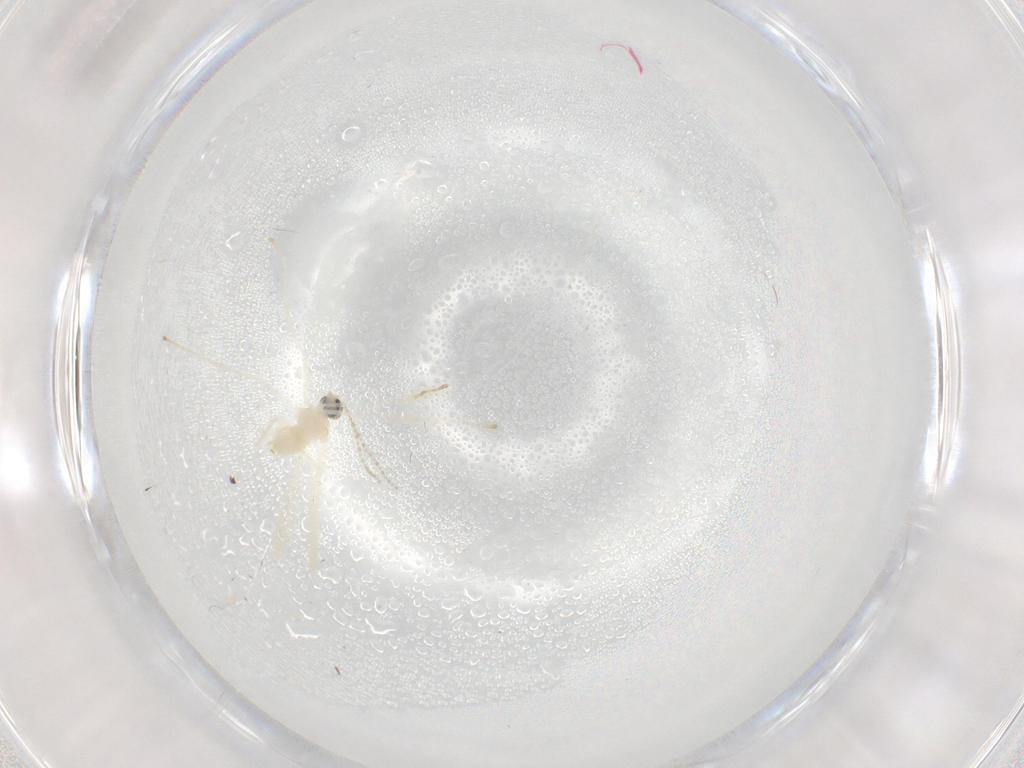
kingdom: Animalia
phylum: Arthropoda
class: Insecta
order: Diptera
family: Cecidomyiidae
